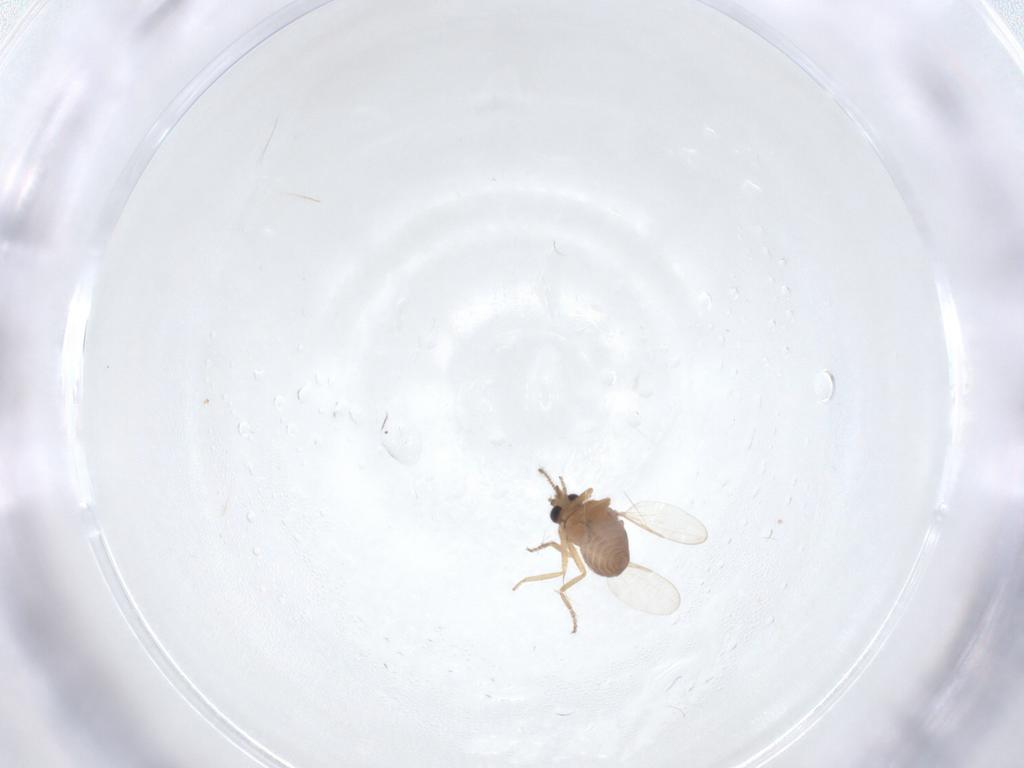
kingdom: Animalia
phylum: Arthropoda
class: Insecta
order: Diptera
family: Ceratopogonidae
